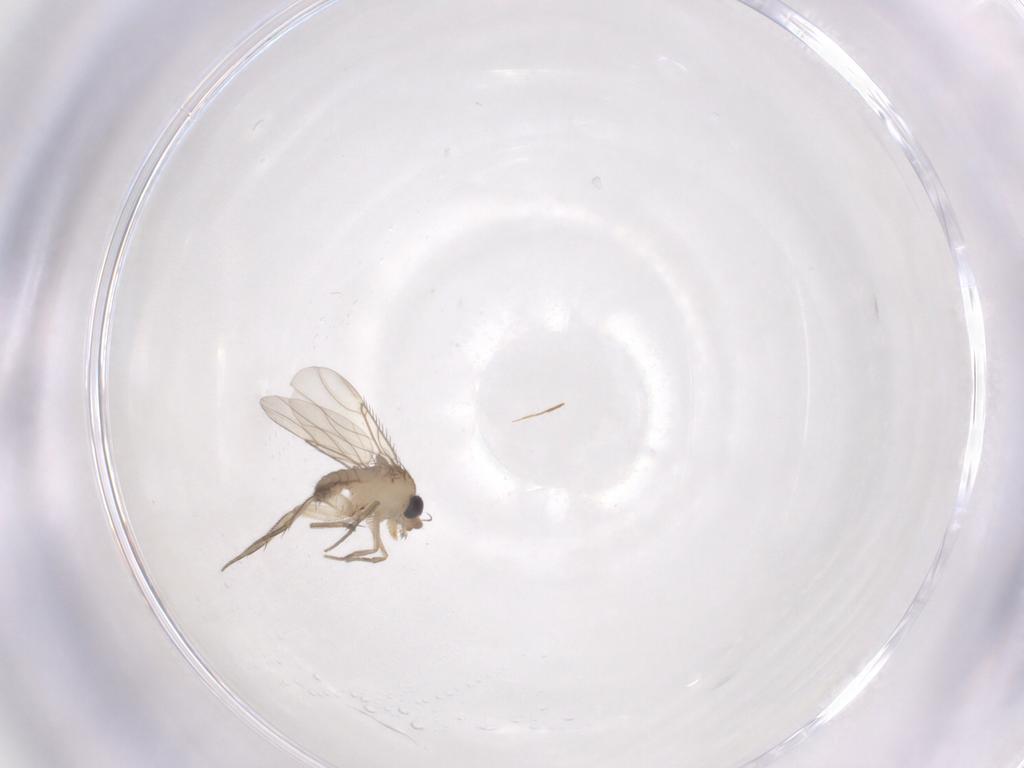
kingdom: Animalia
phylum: Arthropoda
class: Insecta
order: Diptera
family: Phoridae
